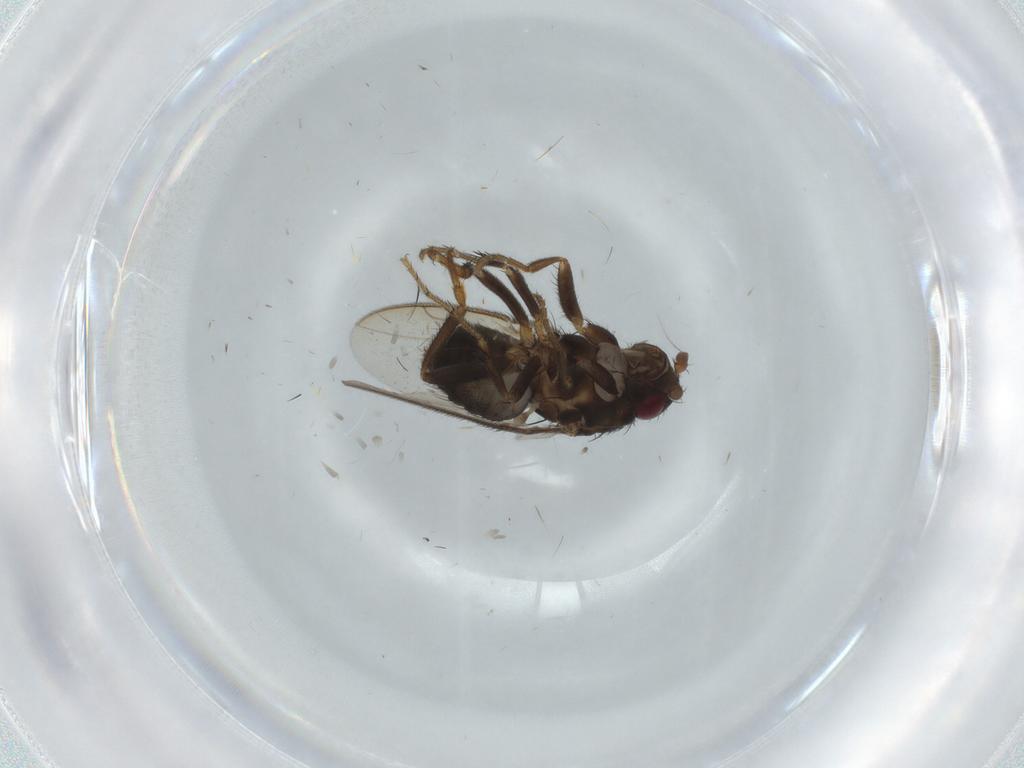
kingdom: Animalia
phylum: Arthropoda
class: Insecta
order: Diptera
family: Sphaeroceridae
